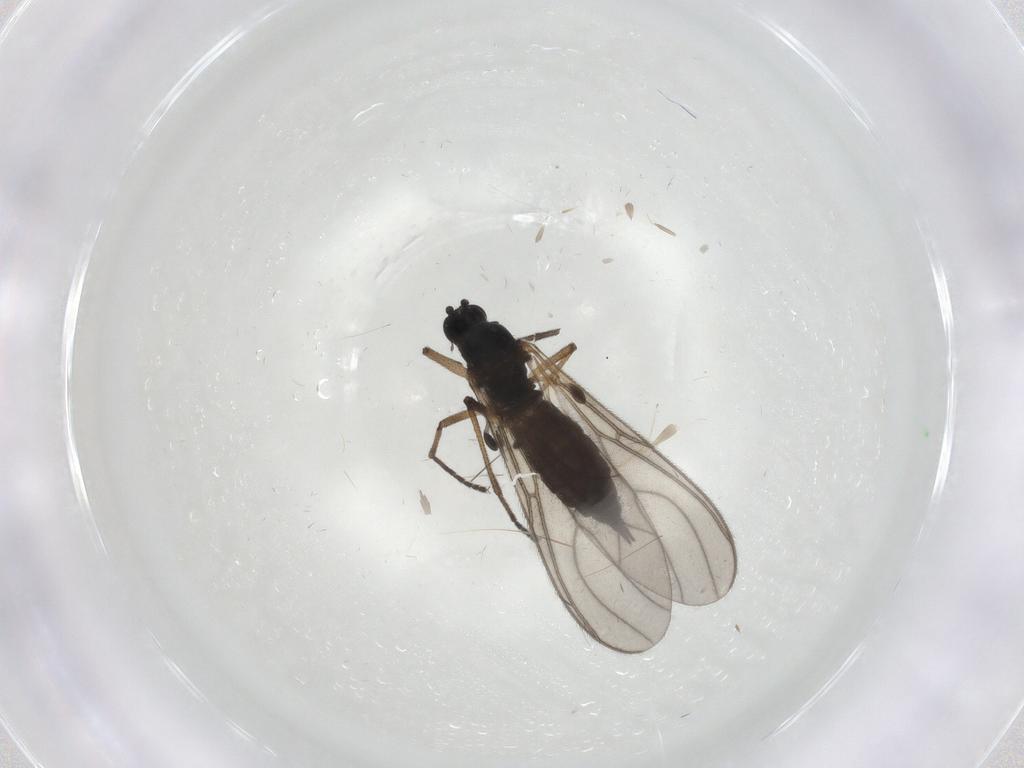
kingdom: Animalia
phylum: Arthropoda
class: Insecta
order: Diptera
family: Sciaridae
